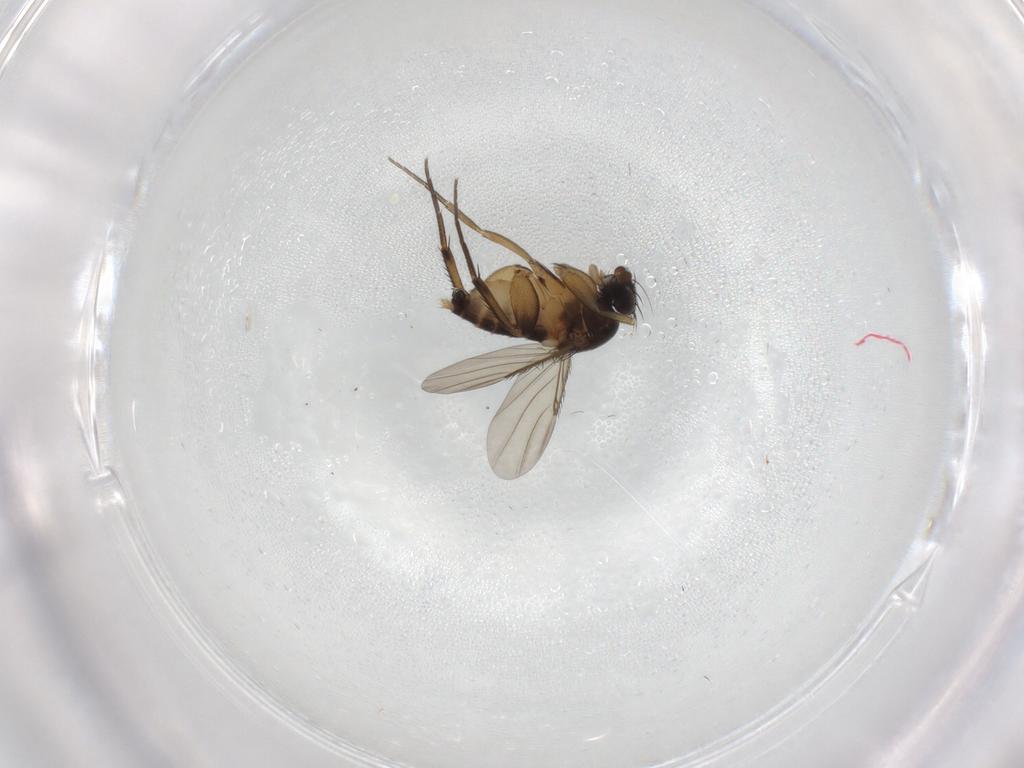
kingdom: Animalia
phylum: Arthropoda
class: Insecta
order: Diptera
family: Phoridae
